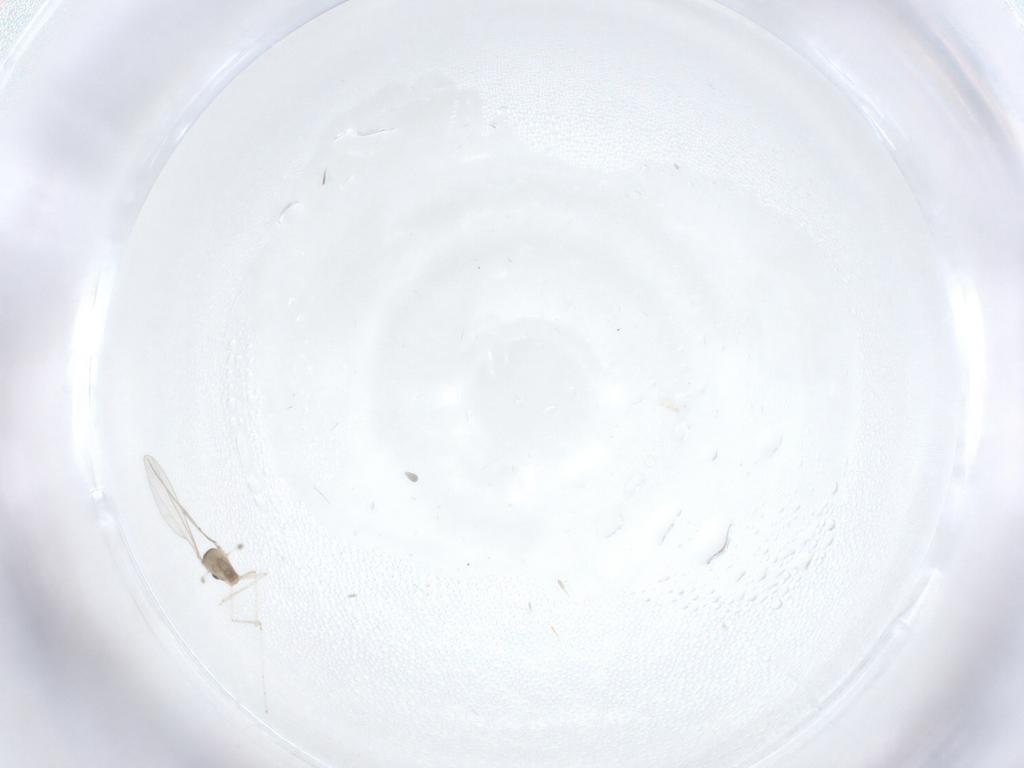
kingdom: Animalia
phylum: Arthropoda
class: Insecta
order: Diptera
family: Cecidomyiidae
